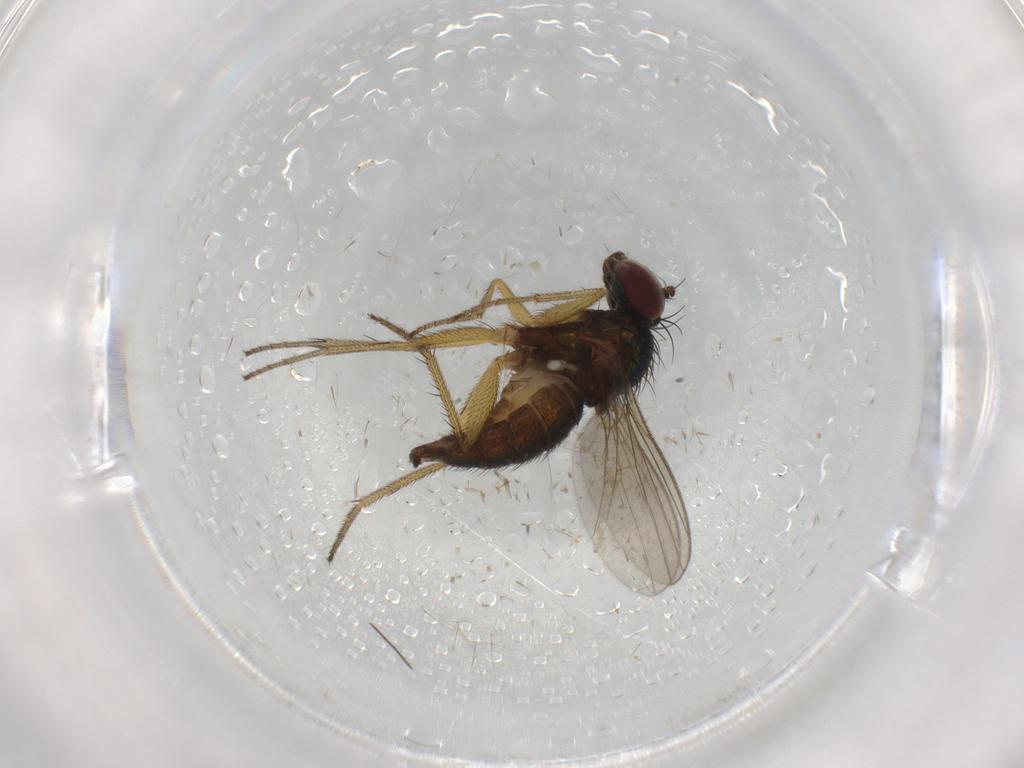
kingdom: Animalia
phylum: Arthropoda
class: Insecta
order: Diptera
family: Dolichopodidae
